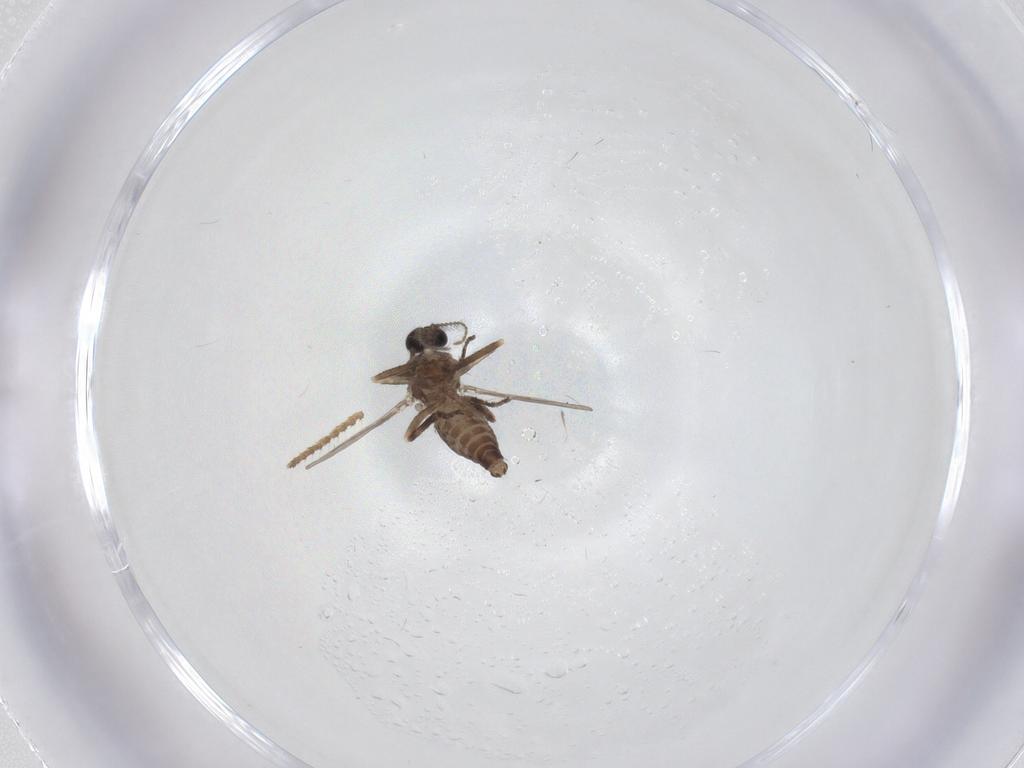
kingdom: Animalia
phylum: Arthropoda
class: Insecta
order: Diptera
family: Ceratopogonidae
